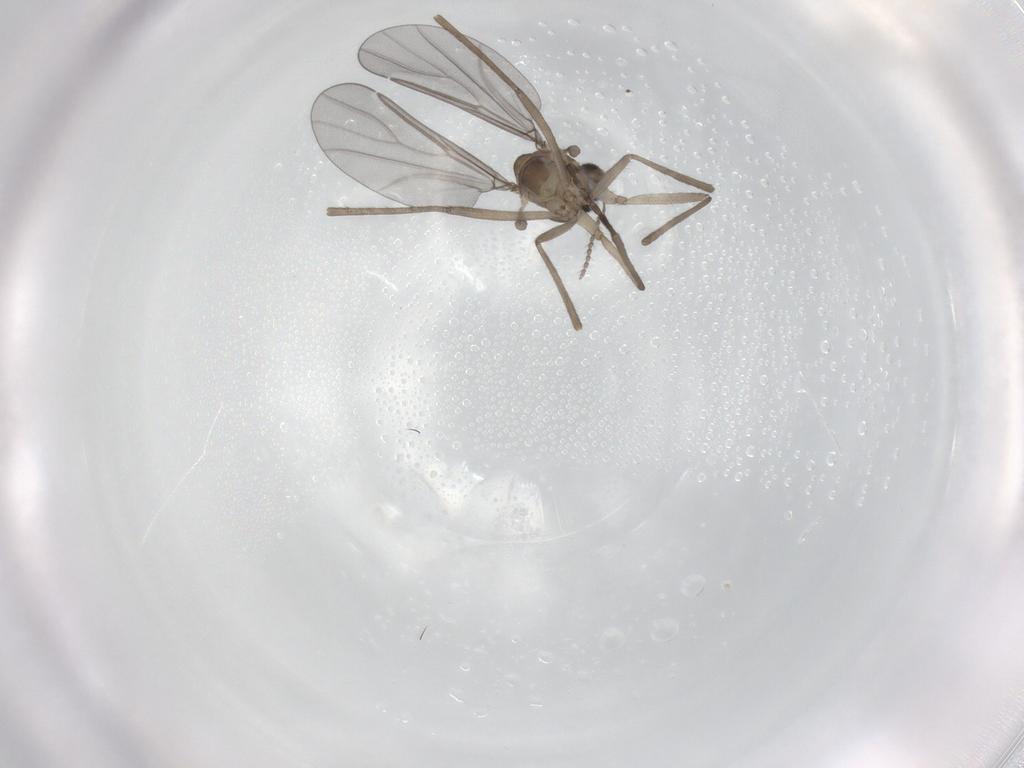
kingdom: Animalia
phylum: Arthropoda
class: Insecta
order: Diptera
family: Cecidomyiidae
